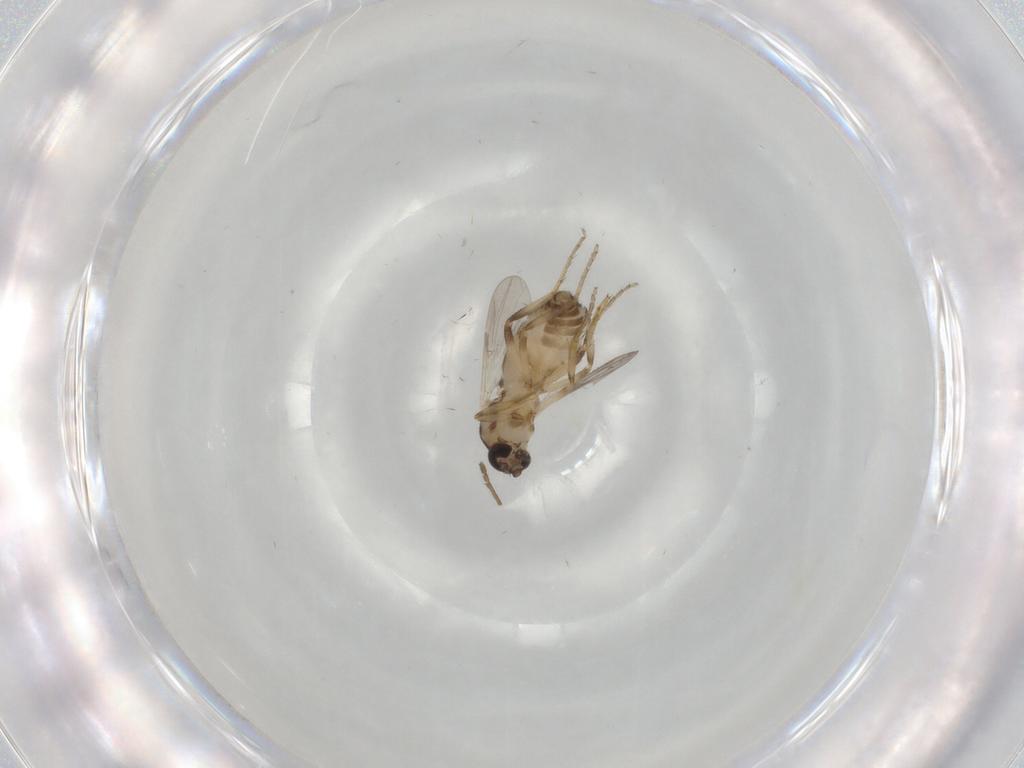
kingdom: Animalia
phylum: Arthropoda
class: Insecta
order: Diptera
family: Ceratopogonidae
